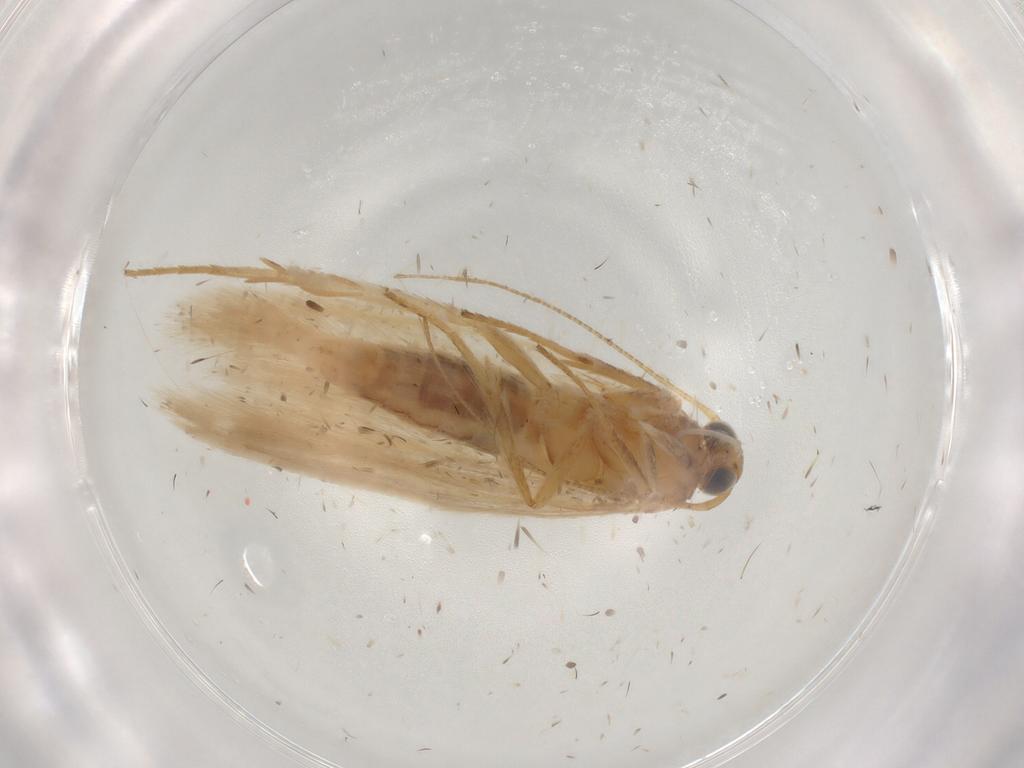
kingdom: Animalia
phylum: Arthropoda
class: Insecta
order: Lepidoptera
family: Gelechiidae
